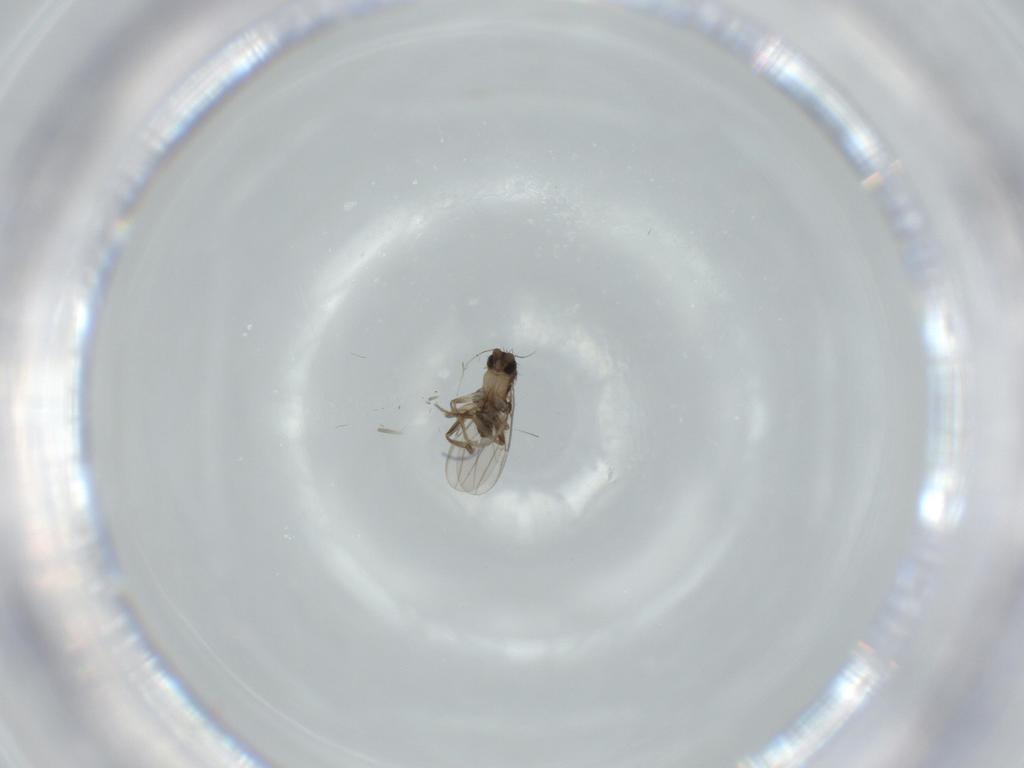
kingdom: Animalia
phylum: Arthropoda
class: Insecta
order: Diptera
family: Phoridae
